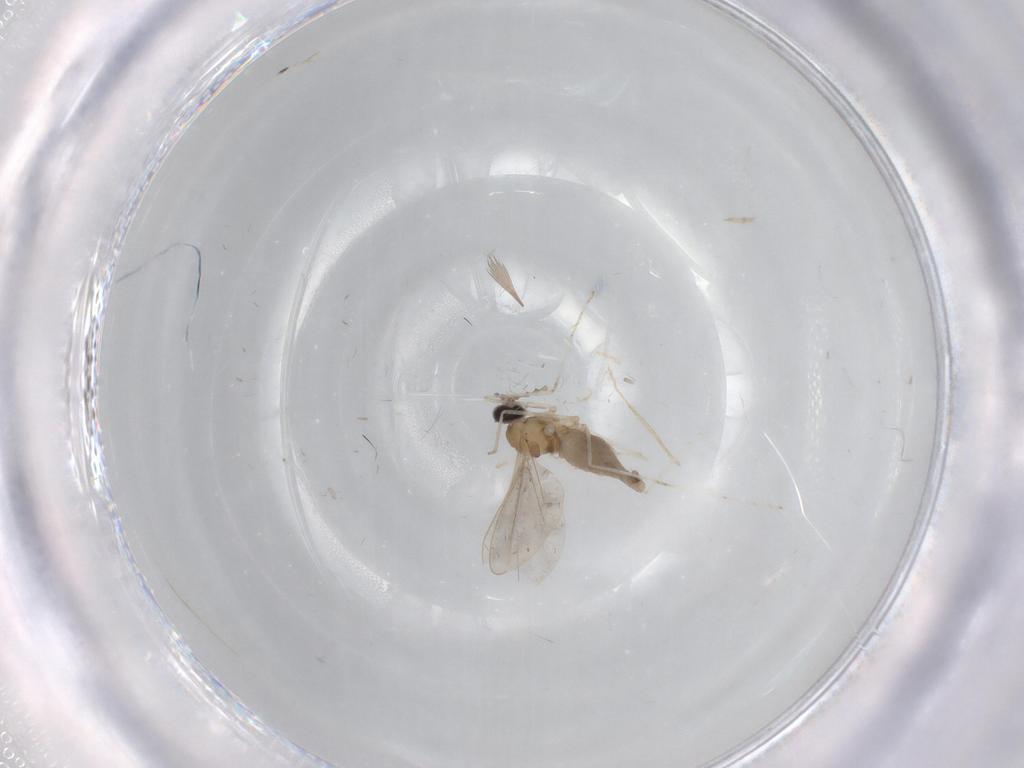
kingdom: Animalia
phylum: Arthropoda
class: Insecta
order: Diptera
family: Cecidomyiidae
